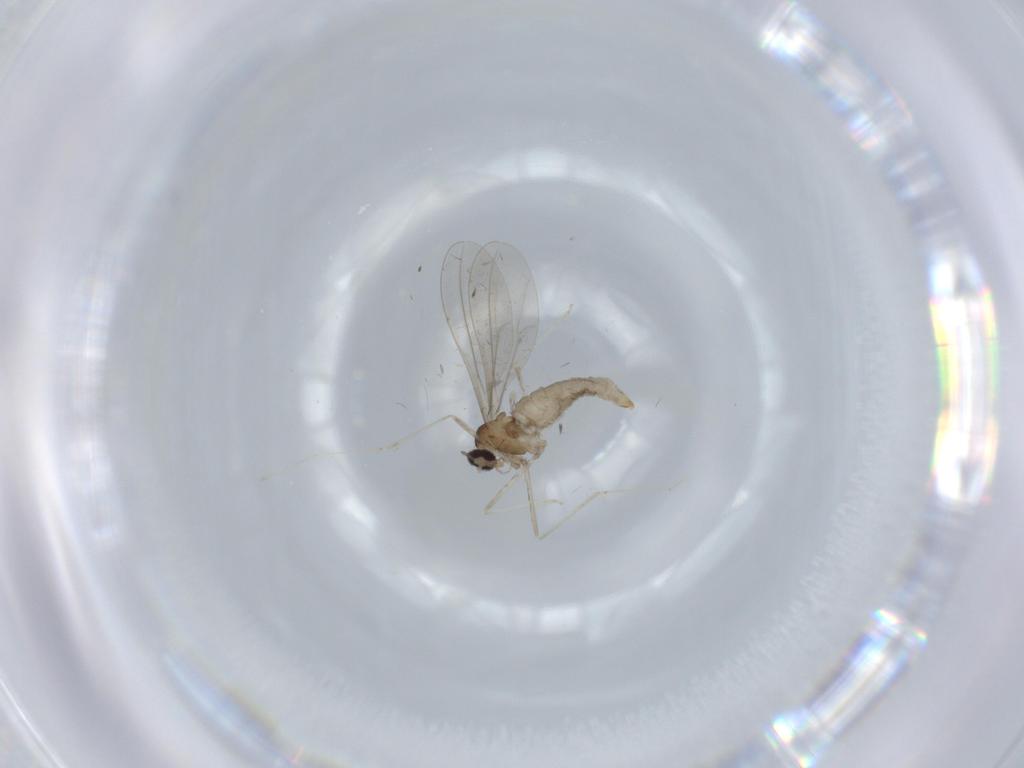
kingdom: Animalia
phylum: Arthropoda
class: Insecta
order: Diptera
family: Cecidomyiidae
